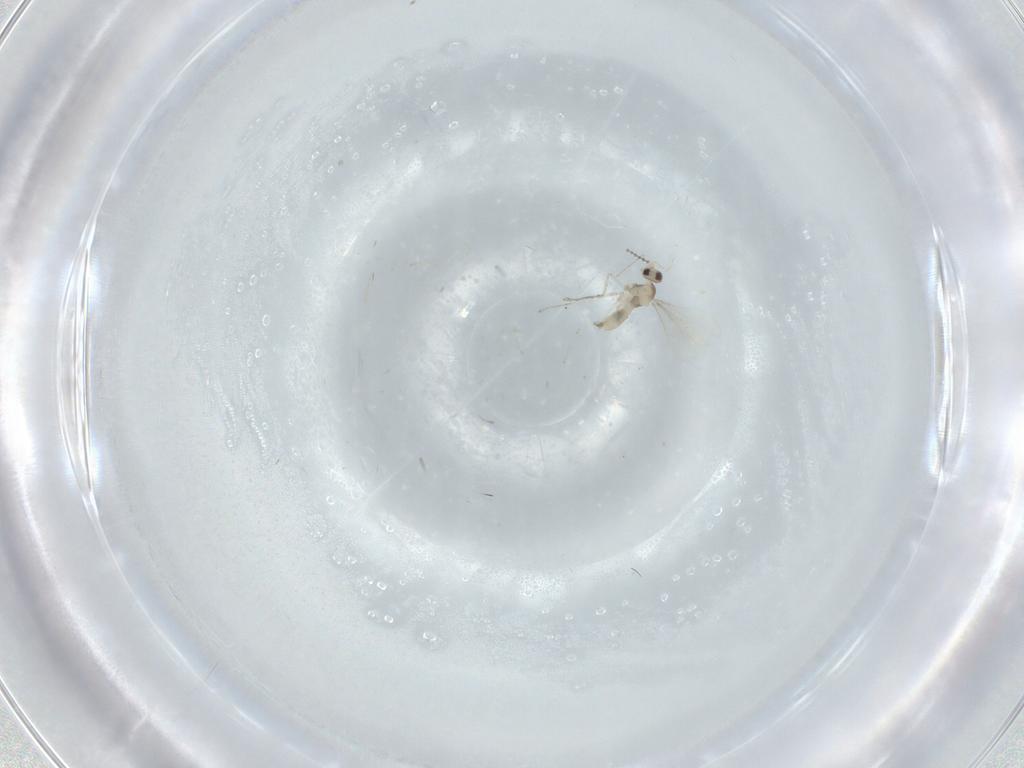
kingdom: Animalia
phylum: Arthropoda
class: Insecta
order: Diptera
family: Cecidomyiidae
